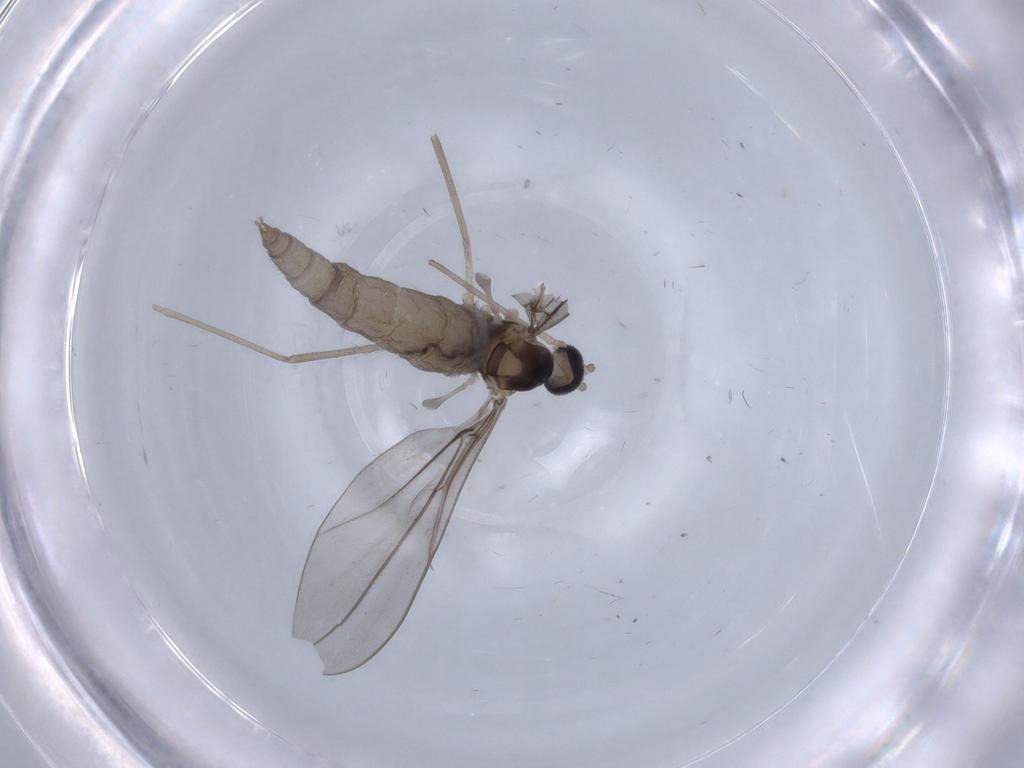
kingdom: Animalia
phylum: Arthropoda
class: Insecta
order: Diptera
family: Cecidomyiidae
